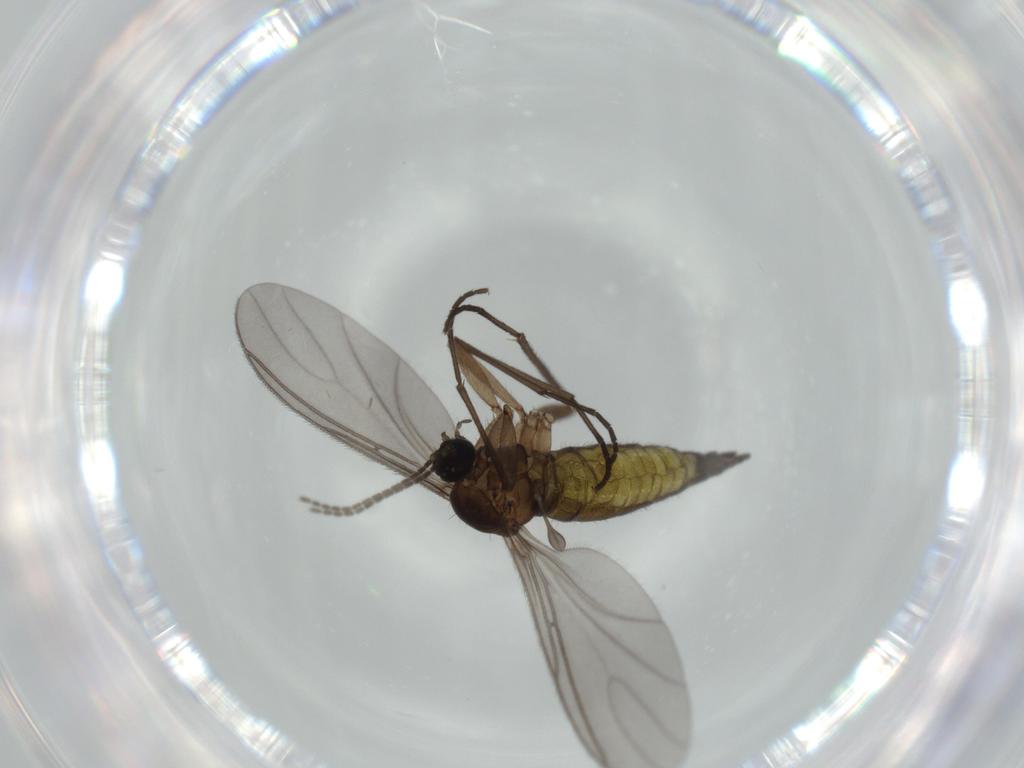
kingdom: Animalia
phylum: Arthropoda
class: Insecta
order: Diptera
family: Sciaridae
